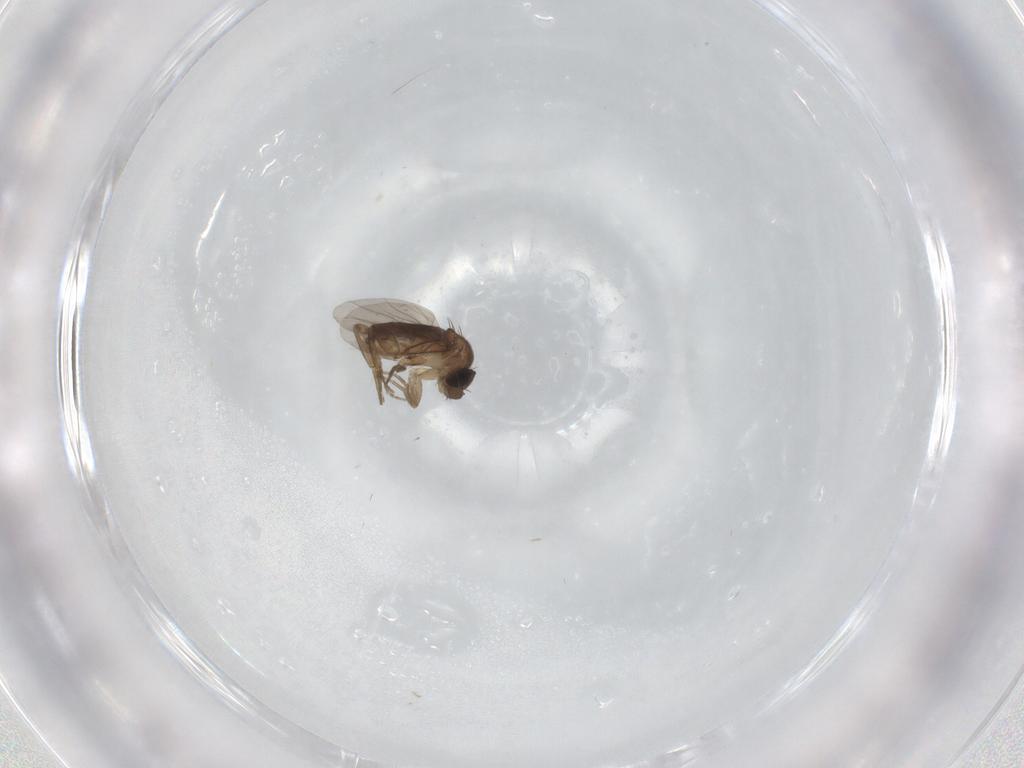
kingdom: Animalia
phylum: Arthropoda
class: Insecta
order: Diptera
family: Phoridae
